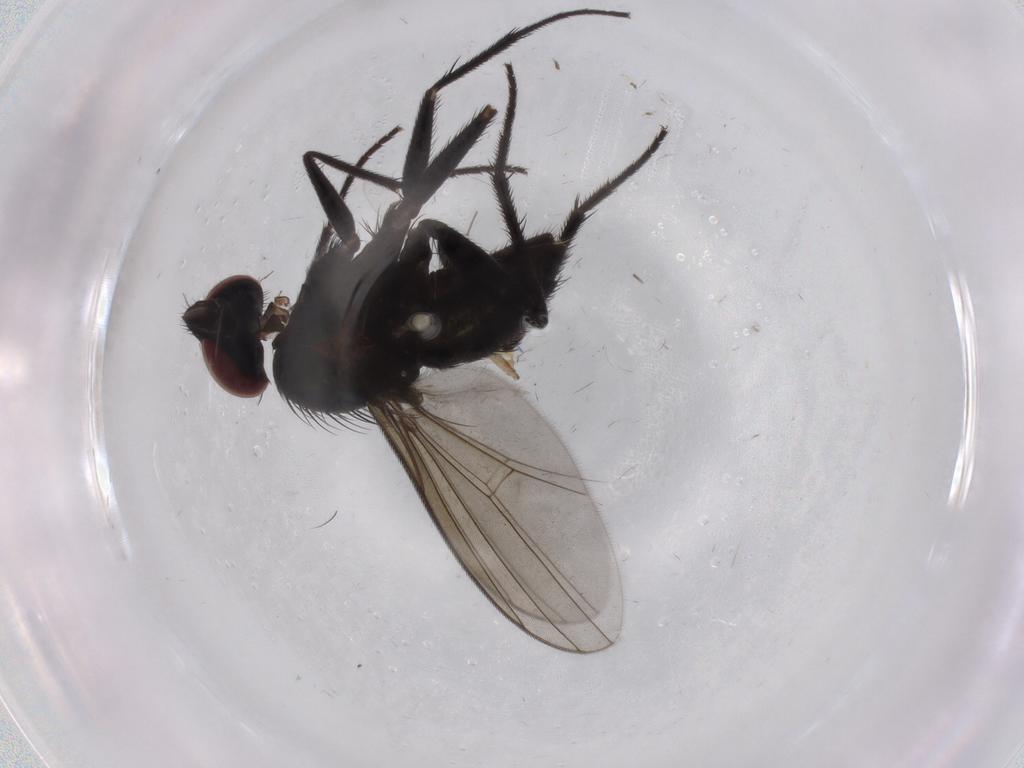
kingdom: Animalia
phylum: Arthropoda
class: Insecta
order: Diptera
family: Dolichopodidae
